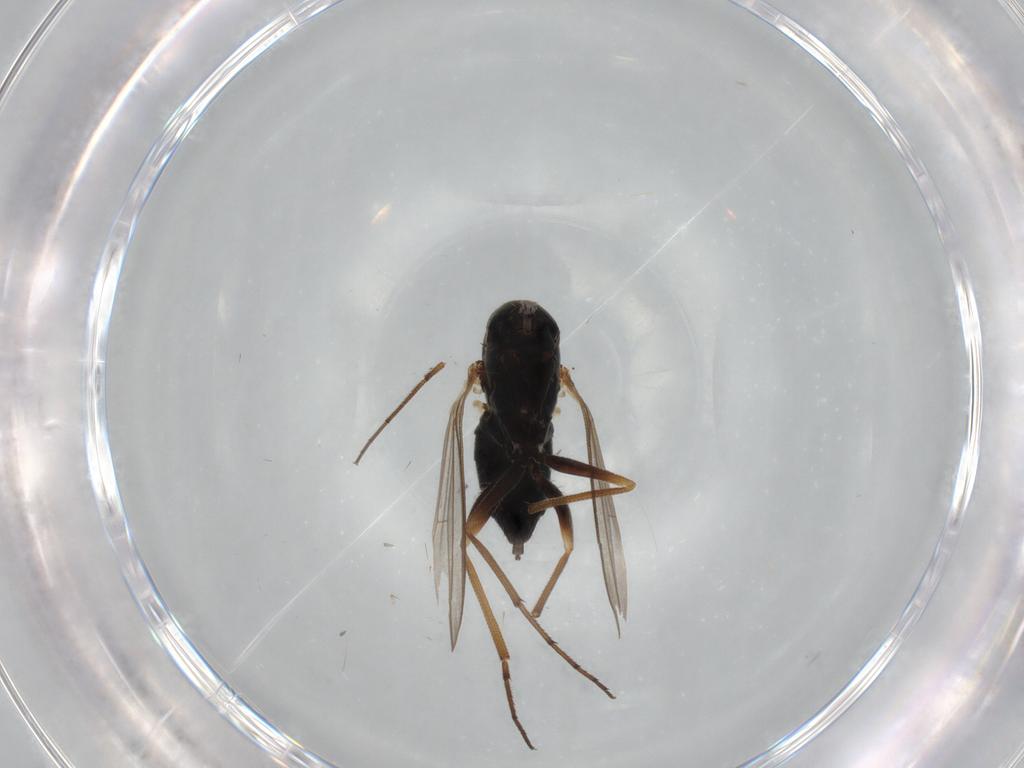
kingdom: Animalia
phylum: Arthropoda
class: Insecta
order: Diptera
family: Dolichopodidae
